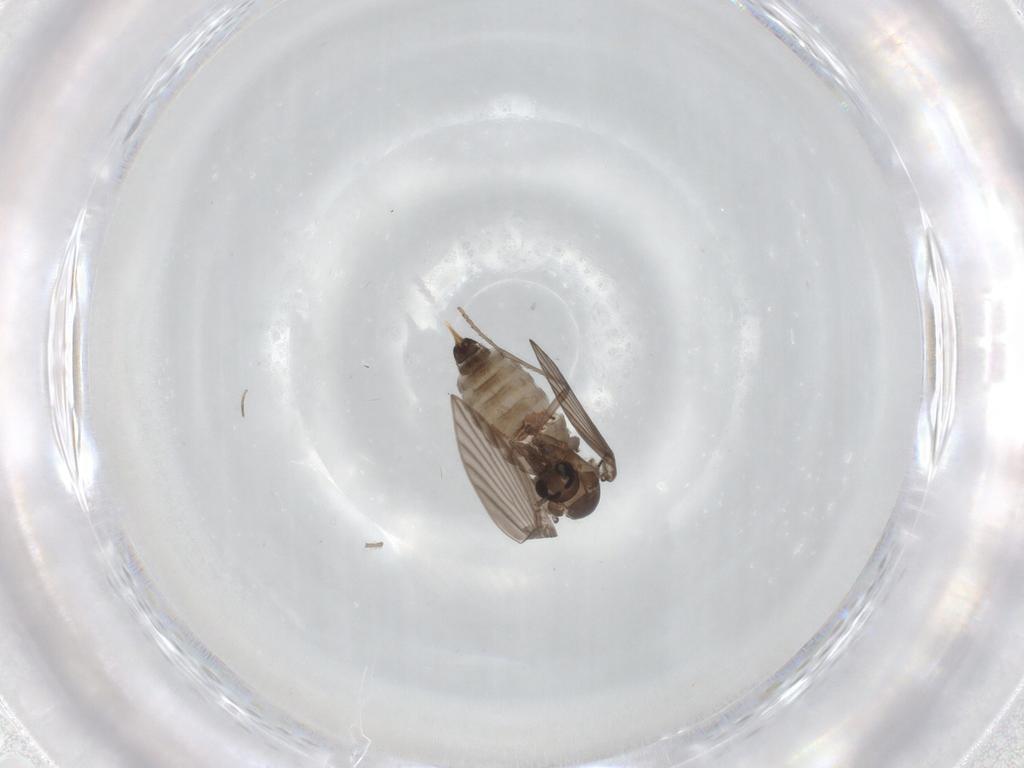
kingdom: Animalia
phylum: Arthropoda
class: Insecta
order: Diptera
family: Psychodidae
